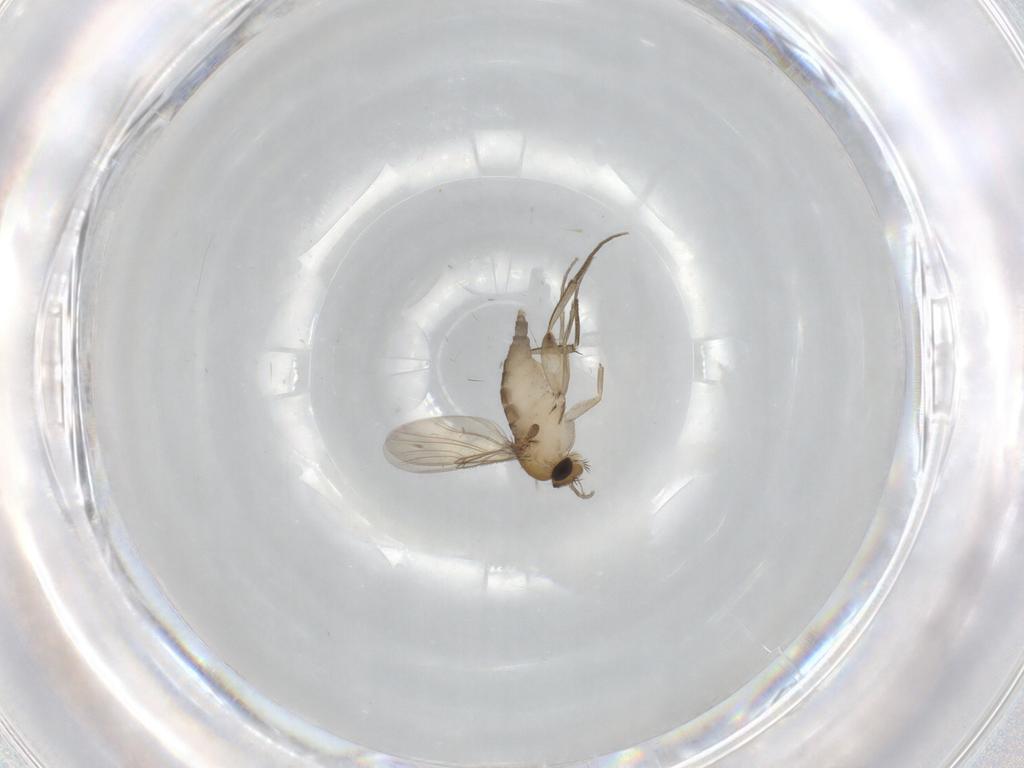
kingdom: Animalia
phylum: Arthropoda
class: Insecta
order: Diptera
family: Phoridae
